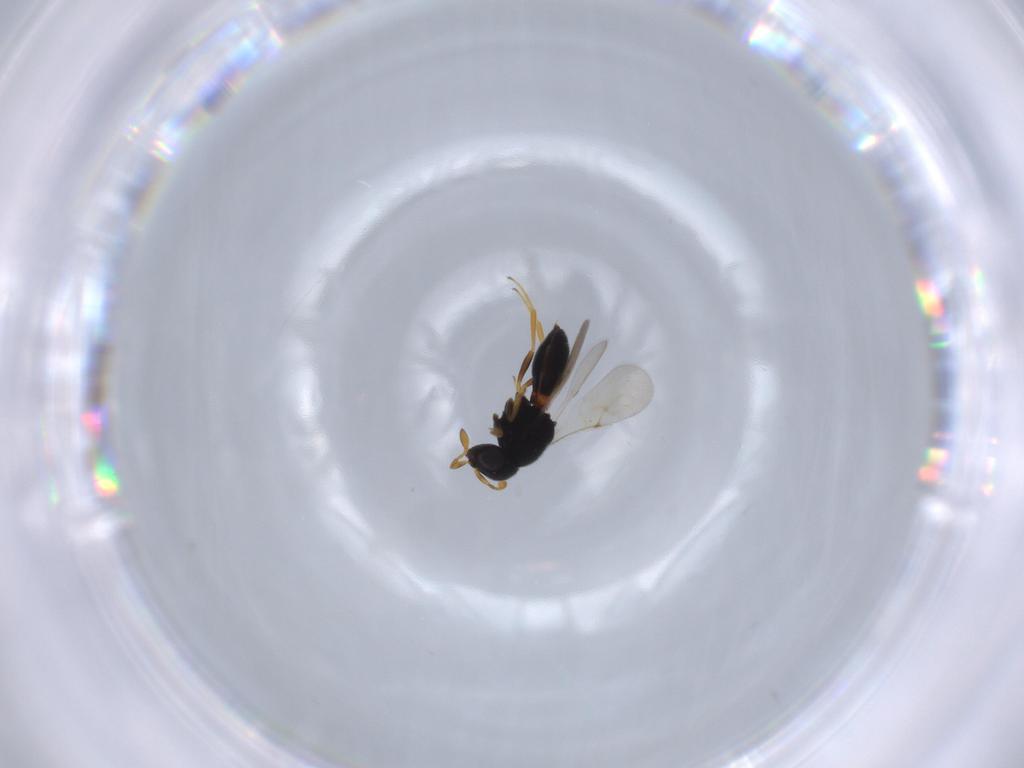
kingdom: Animalia
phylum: Arthropoda
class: Insecta
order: Hymenoptera
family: Scelionidae
